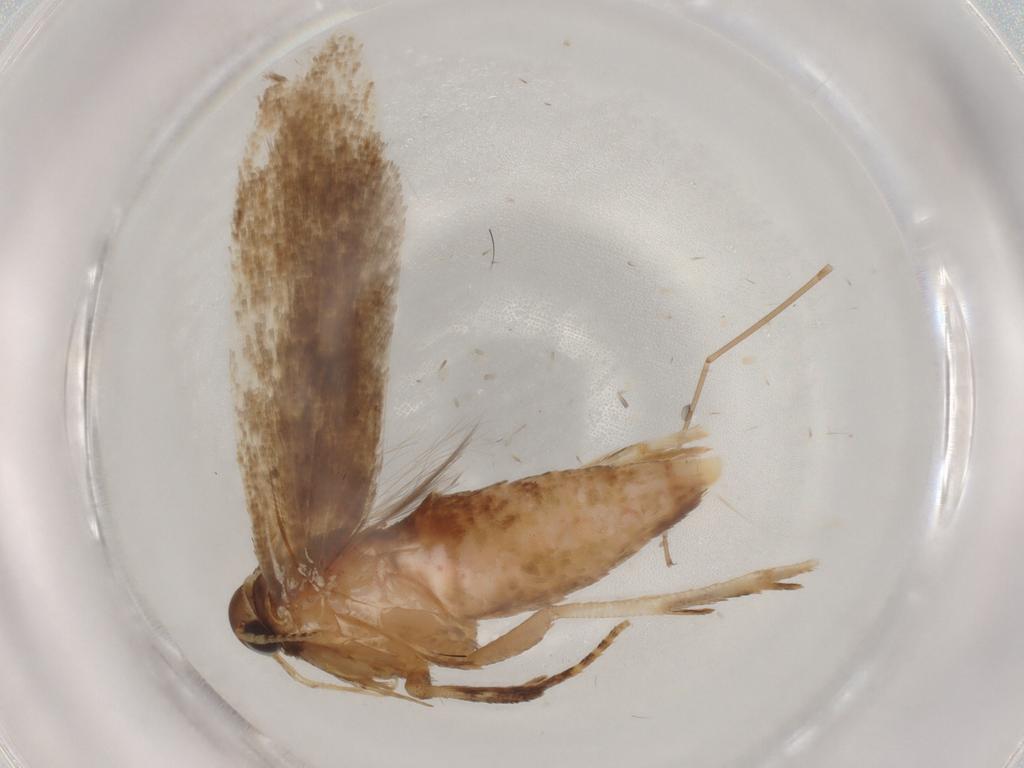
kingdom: Animalia
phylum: Arthropoda
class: Insecta
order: Lepidoptera
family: Gelechiidae
